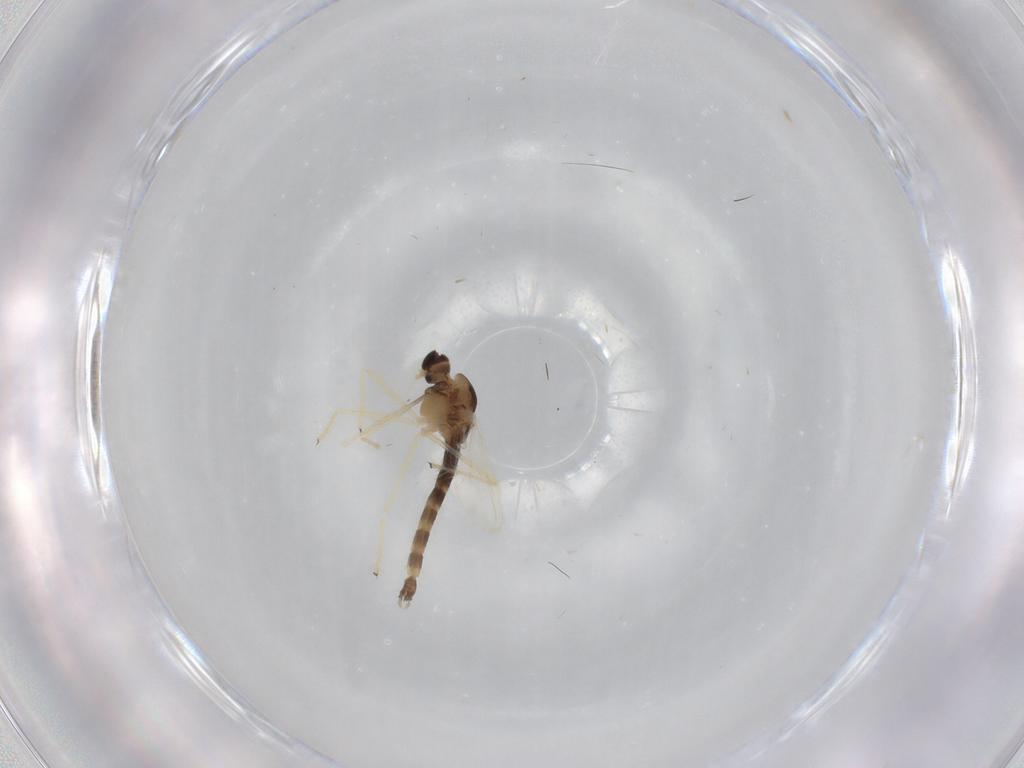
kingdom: Animalia
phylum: Arthropoda
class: Insecta
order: Diptera
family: Chironomidae
